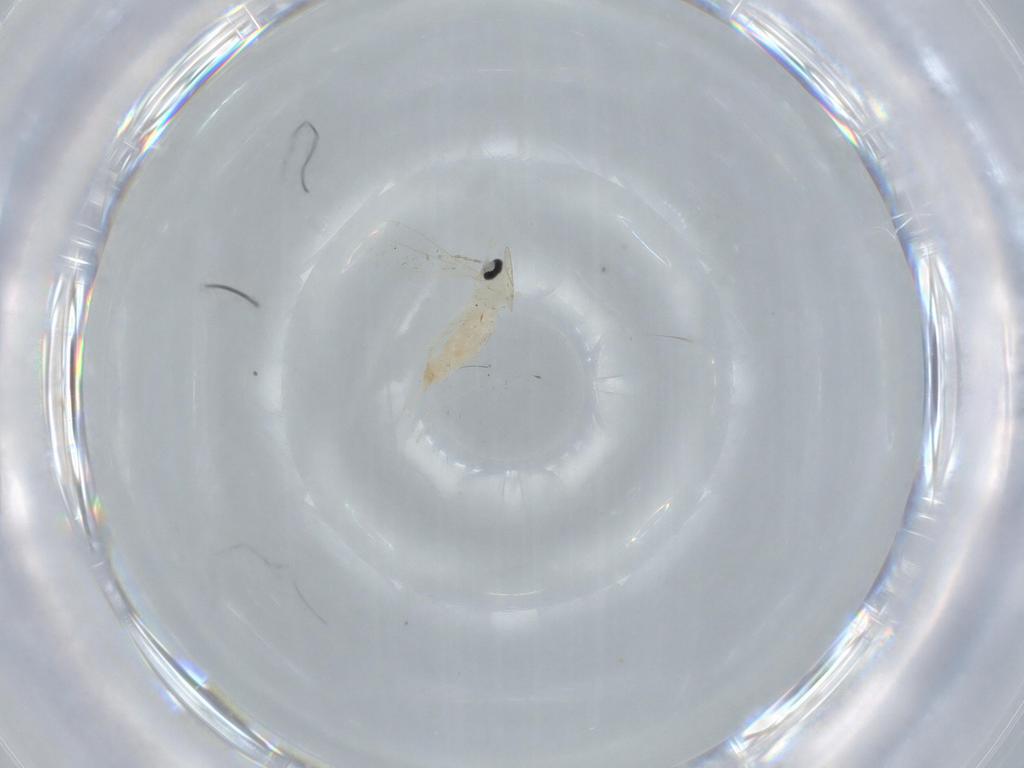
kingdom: Animalia
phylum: Arthropoda
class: Insecta
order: Diptera
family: Cecidomyiidae
